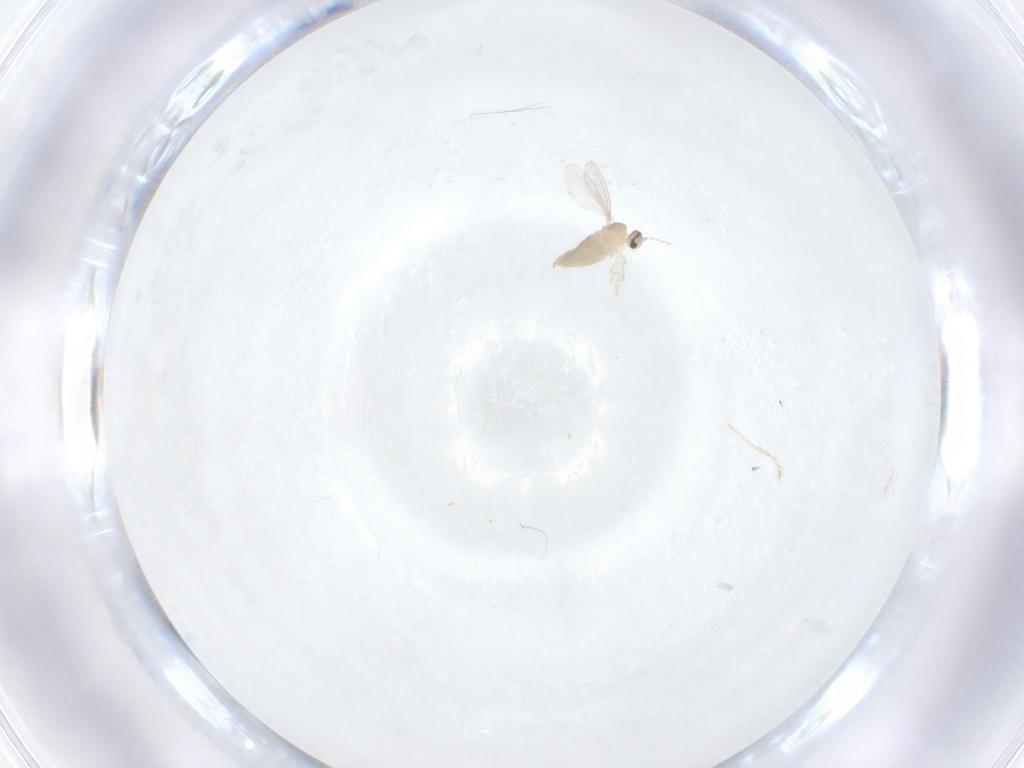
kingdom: Animalia
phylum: Arthropoda
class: Insecta
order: Diptera
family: Cecidomyiidae
